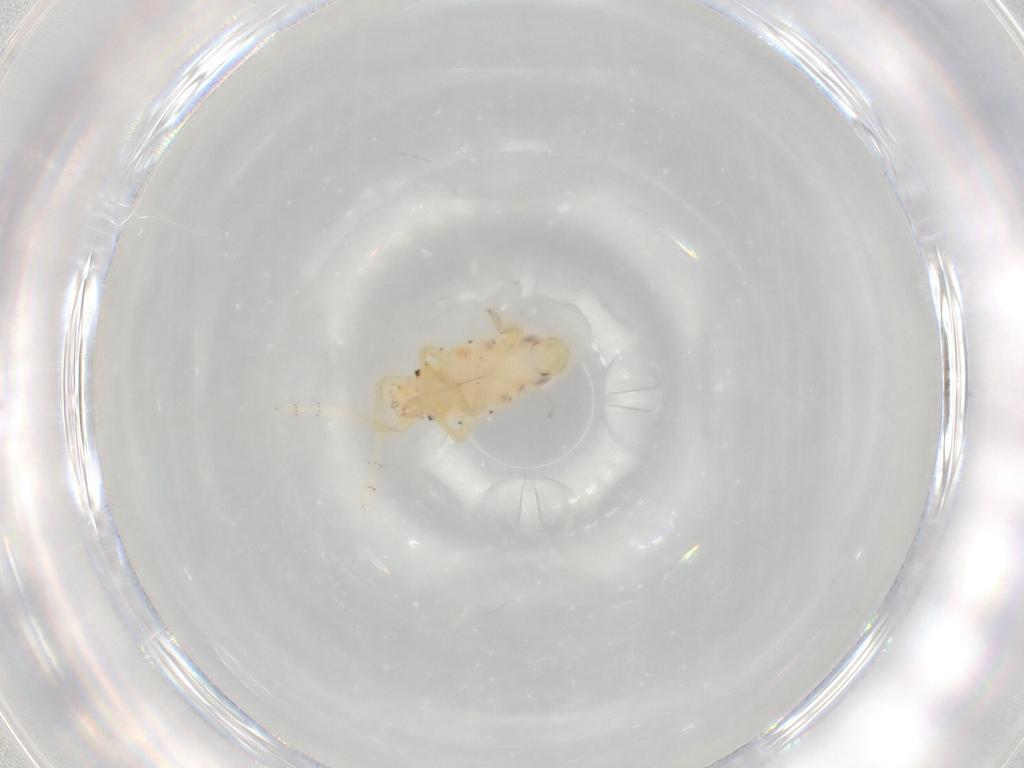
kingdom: Animalia
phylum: Arthropoda
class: Insecta
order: Hemiptera
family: Tropiduchidae
